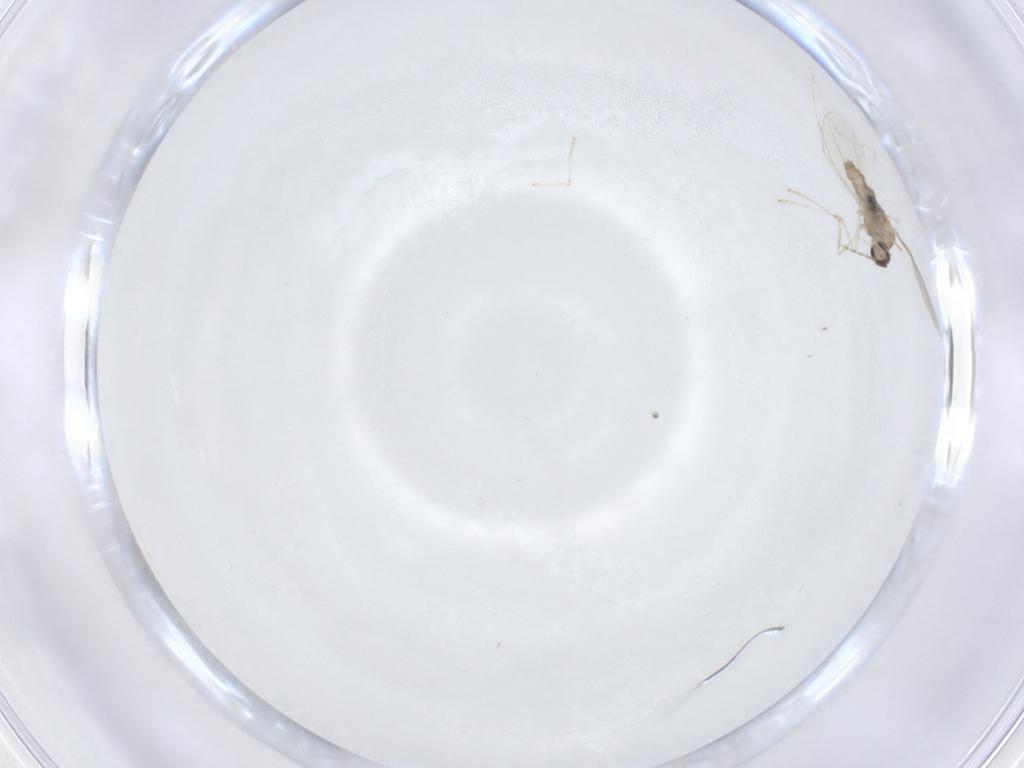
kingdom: Animalia
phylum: Arthropoda
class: Insecta
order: Diptera
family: Cecidomyiidae
